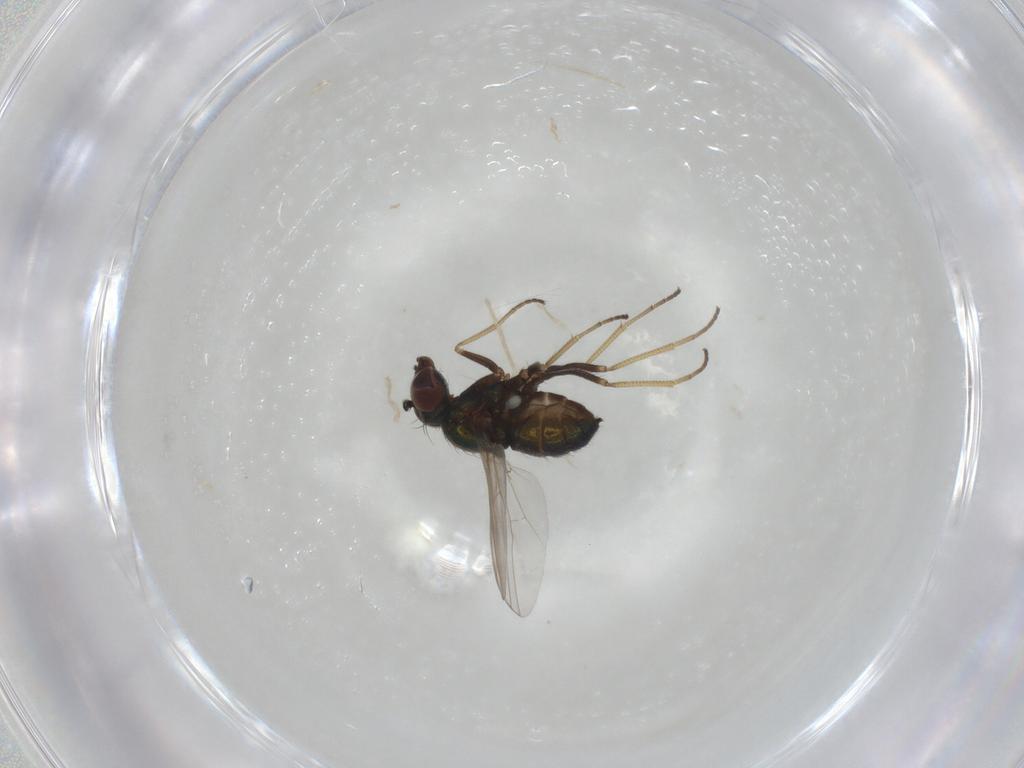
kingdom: Animalia
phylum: Arthropoda
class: Insecta
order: Diptera
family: Dolichopodidae
